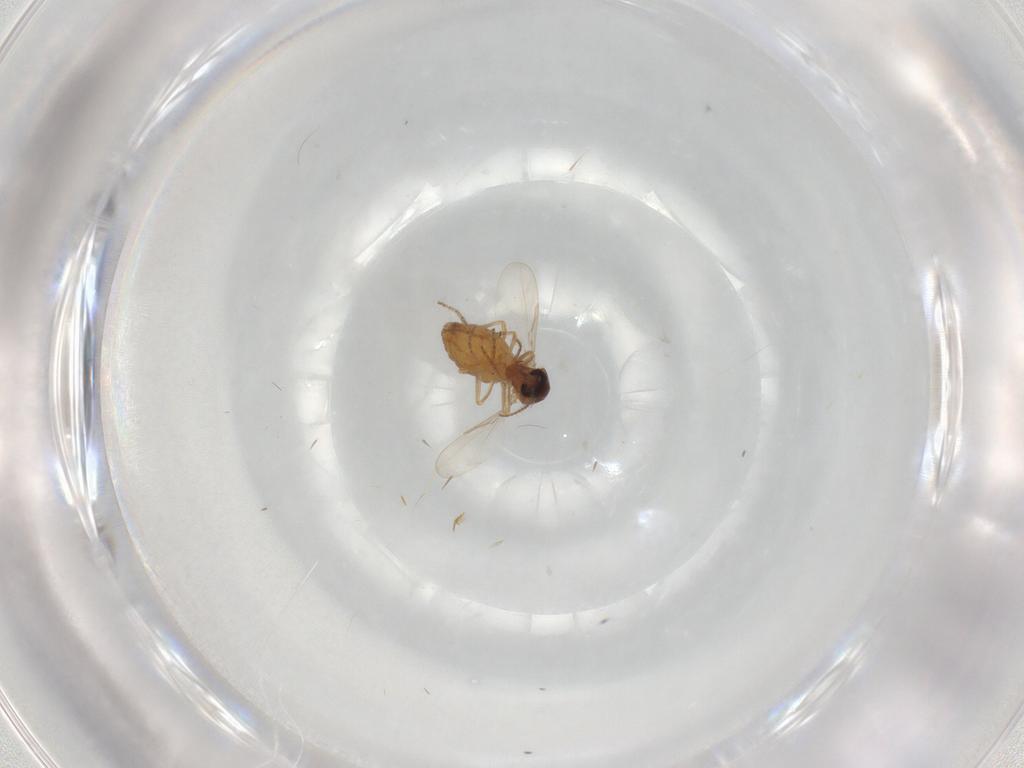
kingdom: Animalia
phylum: Arthropoda
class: Insecta
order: Diptera
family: Ceratopogonidae
